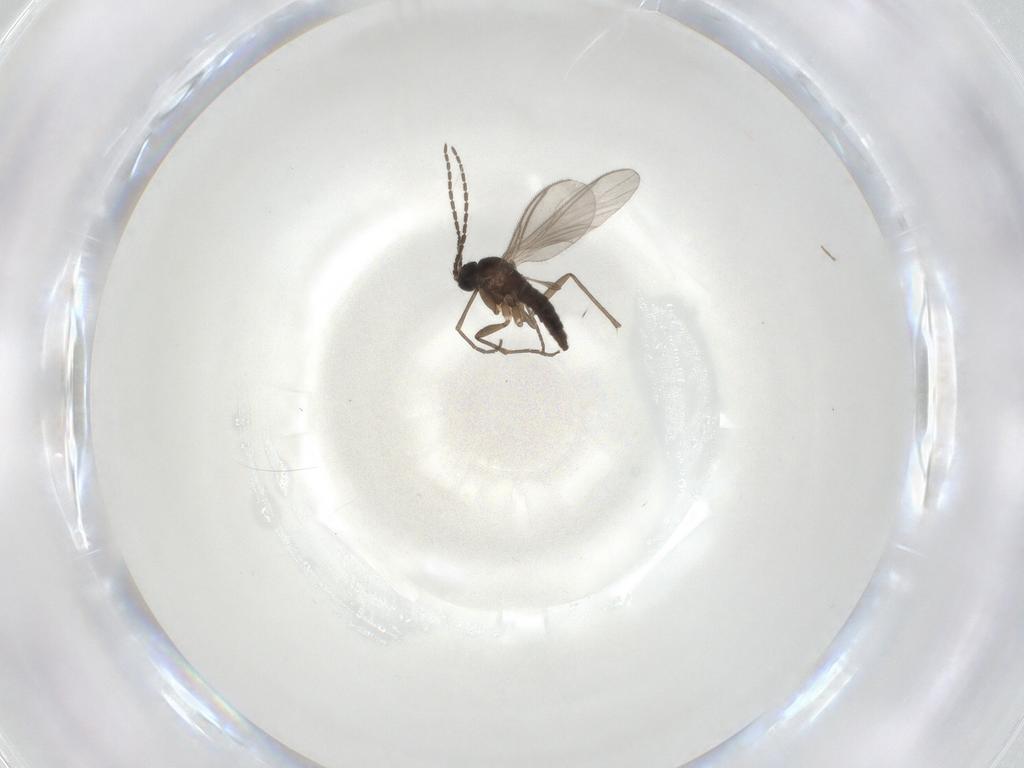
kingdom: Animalia
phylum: Arthropoda
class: Insecta
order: Diptera
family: Sciaridae
